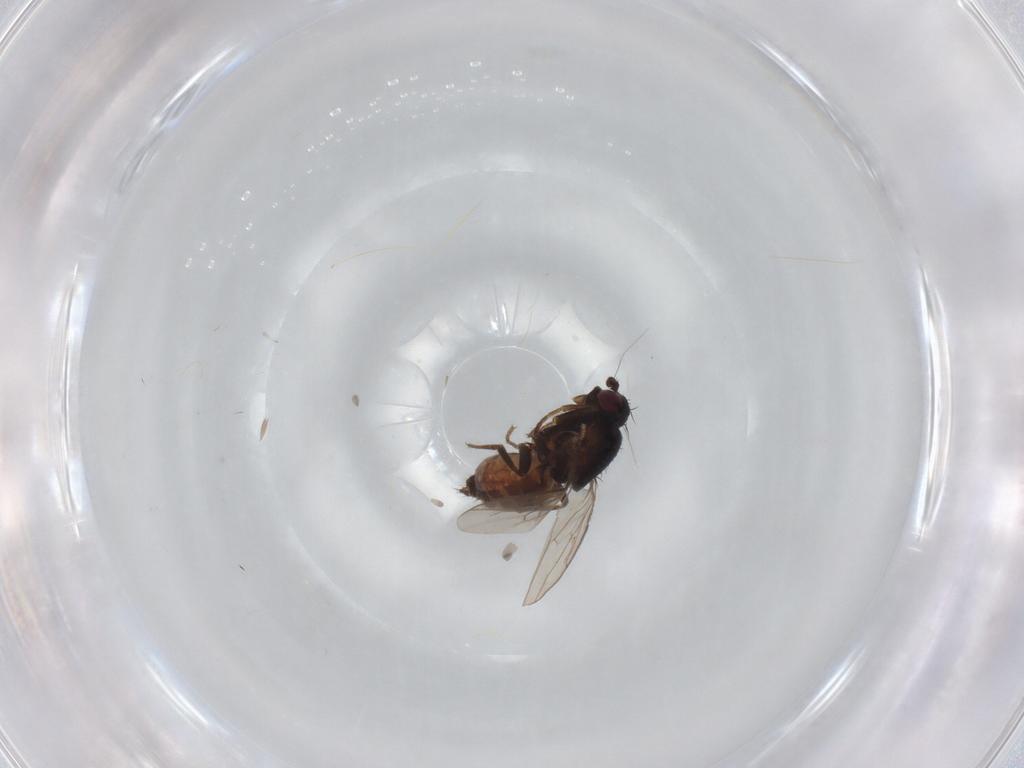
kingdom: Animalia
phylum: Arthropoda
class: Insecta
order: Diptera
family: Sphaeroceridae
